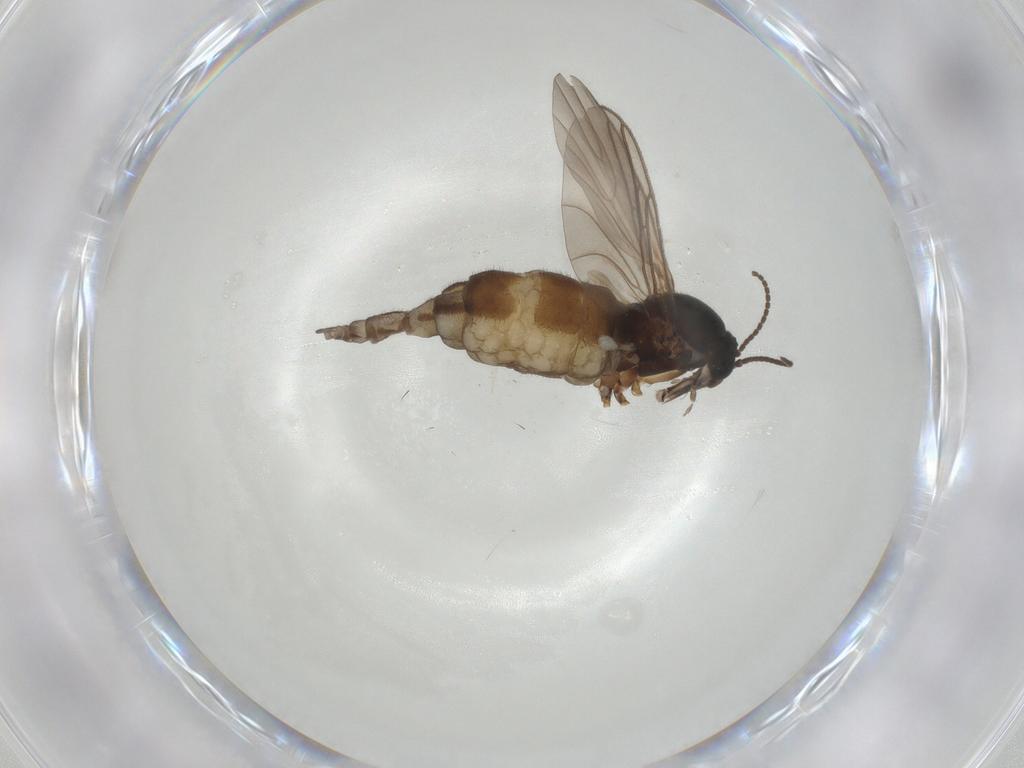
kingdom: Animalia
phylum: Arthropoda
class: Insecta
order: Diptera
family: Sciaridae
